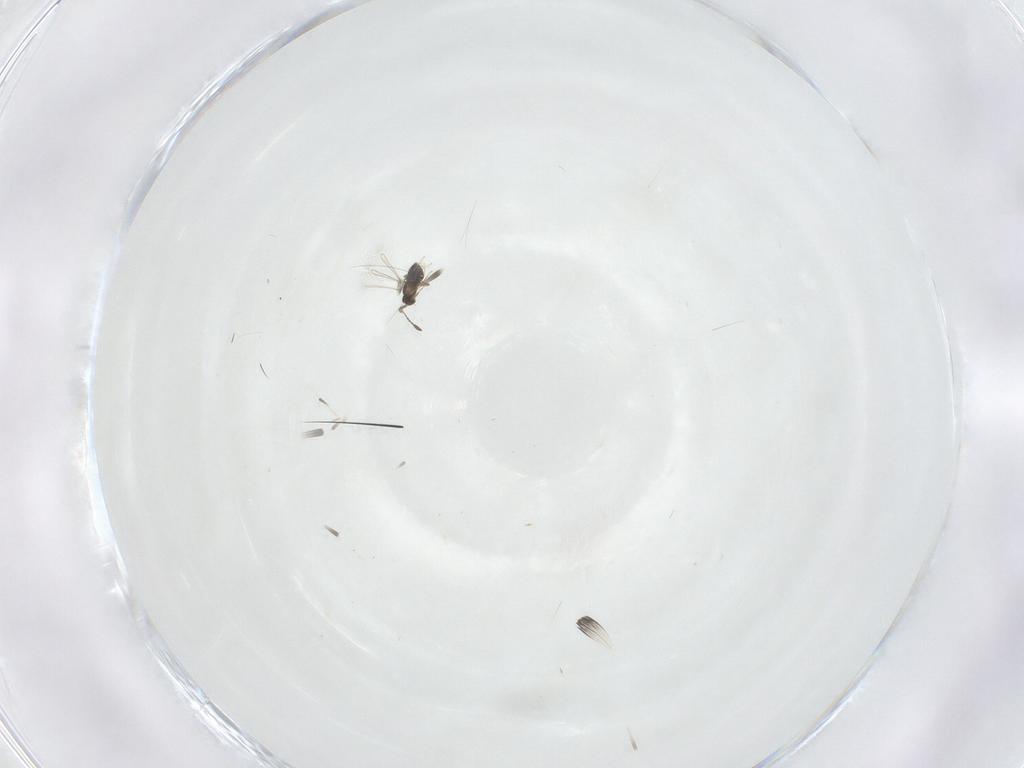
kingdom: Animalia
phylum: Arthropoda
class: Insecta
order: Hymenoptera
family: Mymaridae
